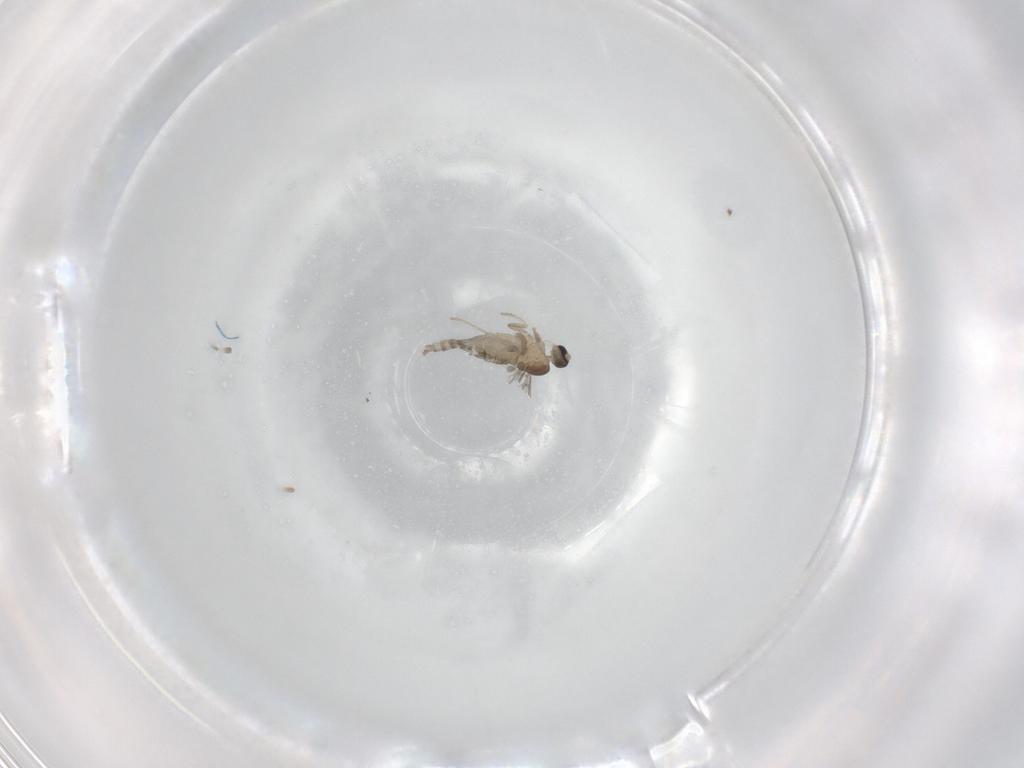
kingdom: Animalia
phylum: Arthropoda
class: Insecta
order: Diptera
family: Cecidomyiidae
